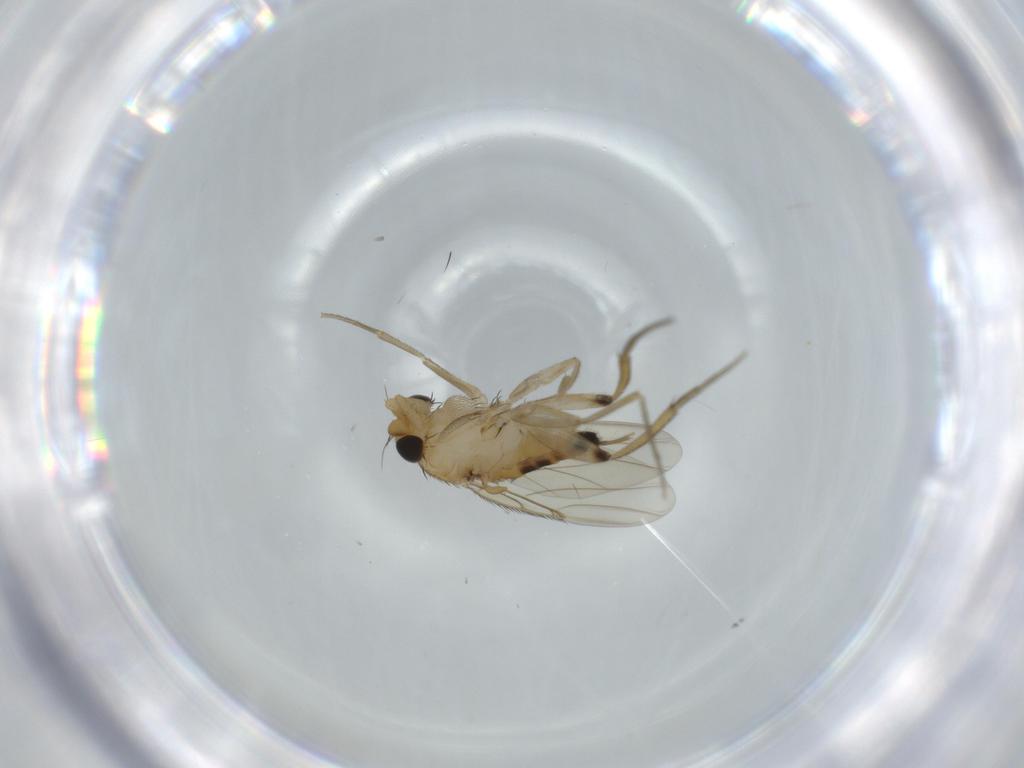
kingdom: Animalia
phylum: Arthropoda
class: Insecta
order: Diptera
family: Phoridae
